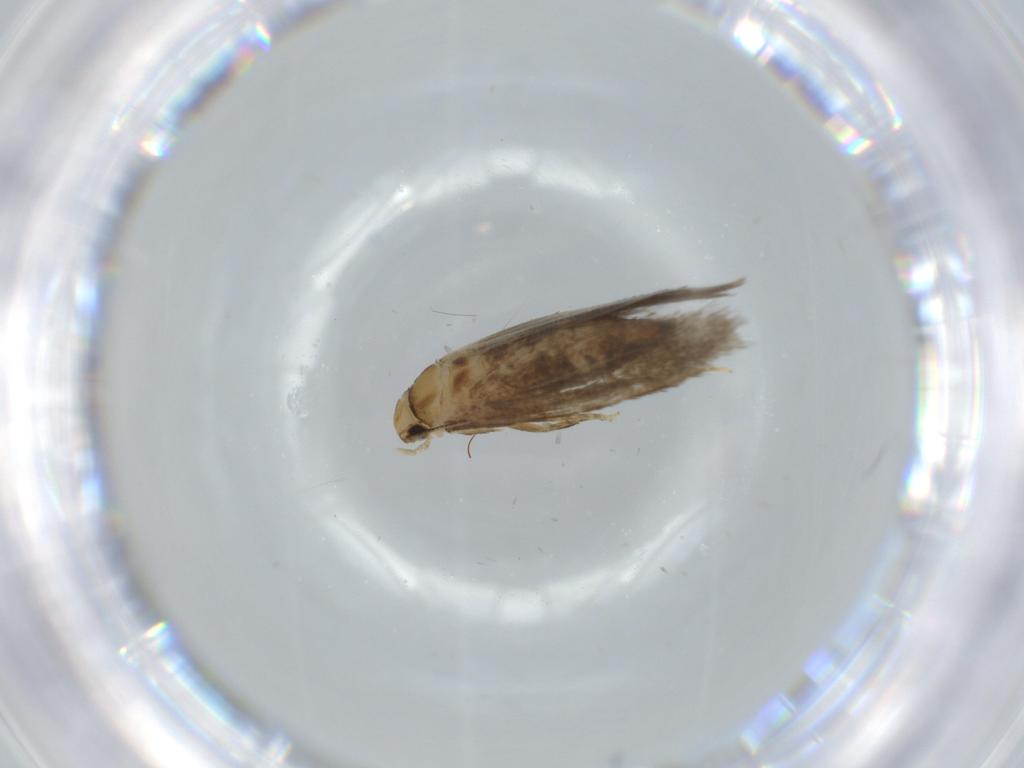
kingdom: Animalia
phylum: Arthropoda
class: Insecta
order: Lepidoptera
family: Tineidae
